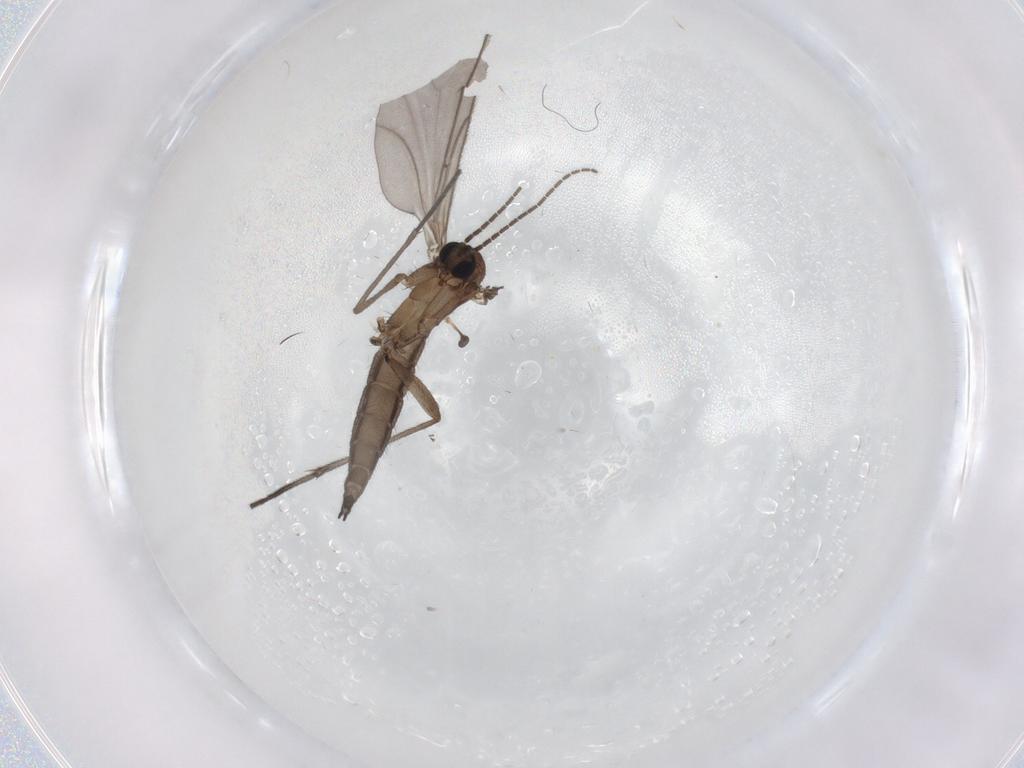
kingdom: Animalia
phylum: Arthropoda
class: Insecta
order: Diptera
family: Sciaridae
